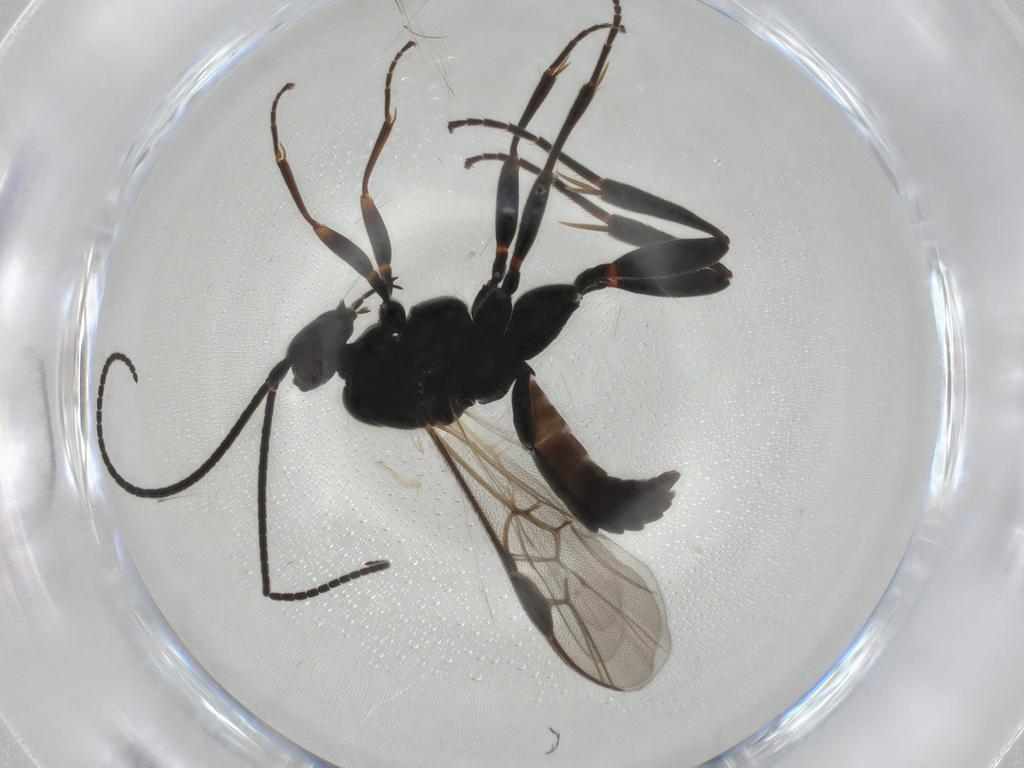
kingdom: Animalia
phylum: Arthropoda
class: Insecta
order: Hymenoptera
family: Braconidae
